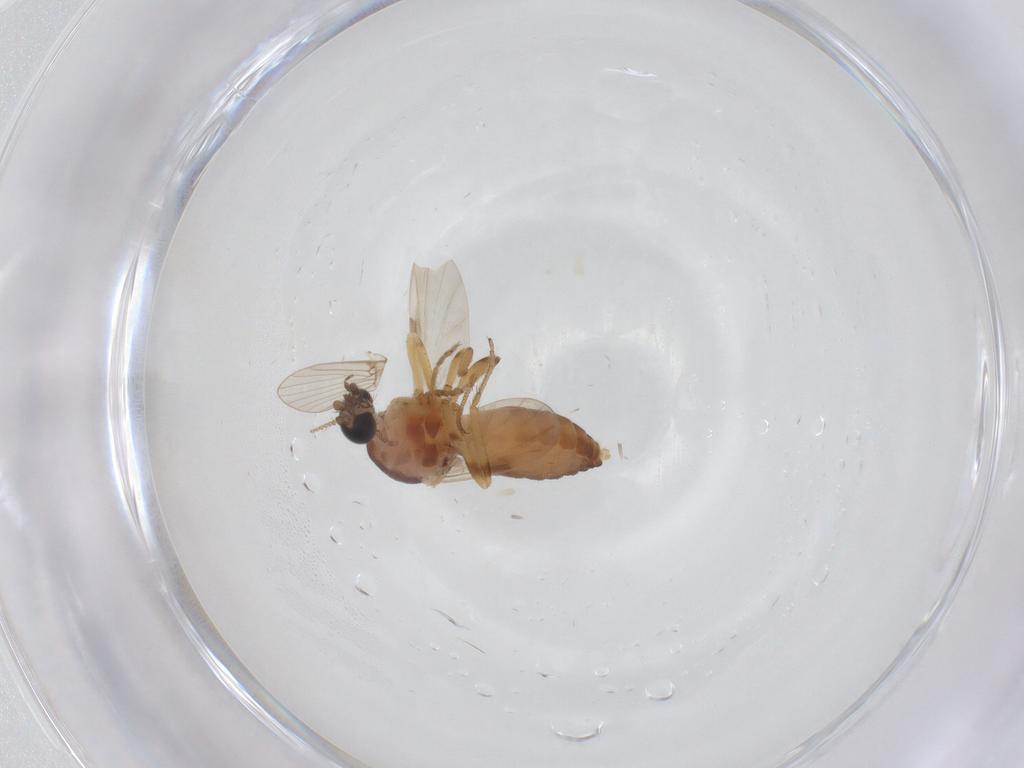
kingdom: Animalia
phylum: Arthropoda
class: Insecta
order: Diptera
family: Ceratopogonidae
